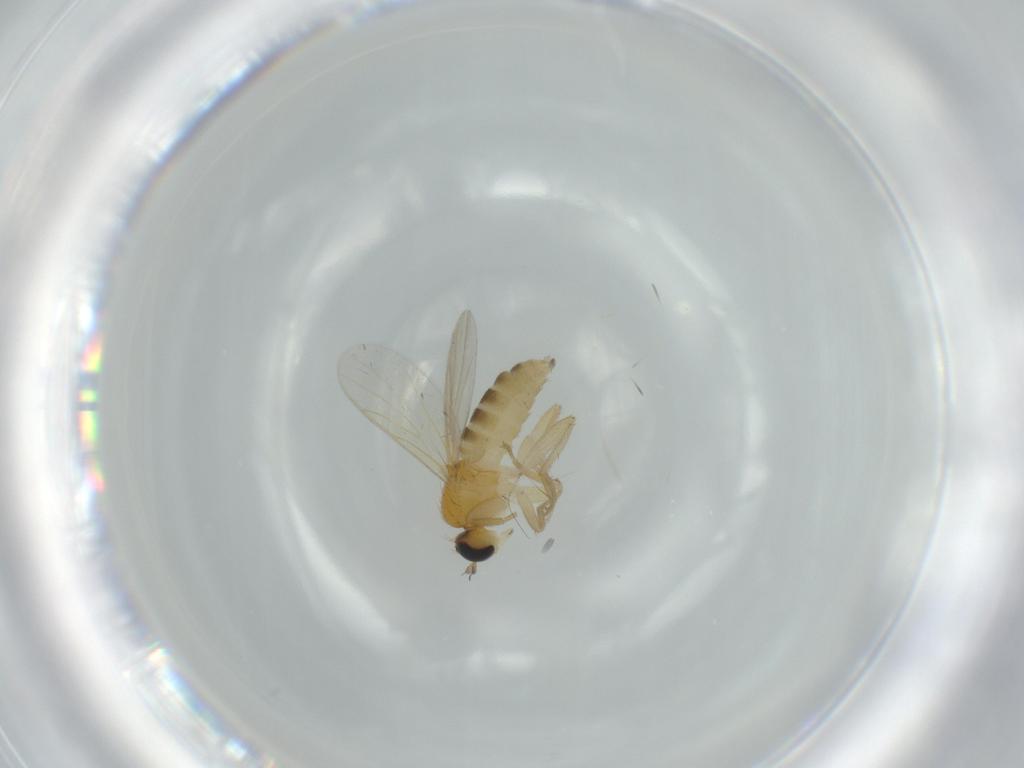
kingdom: Animalia
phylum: Arthropoda
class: Insecta
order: Diptera
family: Hybotidae
